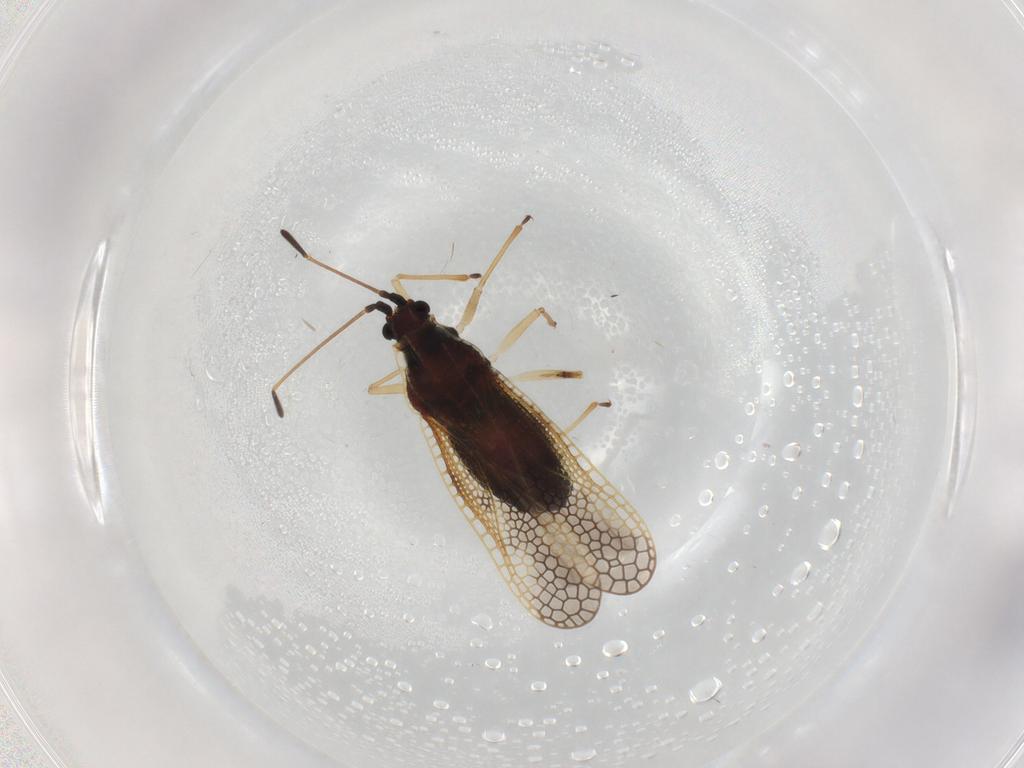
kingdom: Animalia
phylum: Arthropoda
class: Insecta
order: Hemiptera
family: Tingidae
